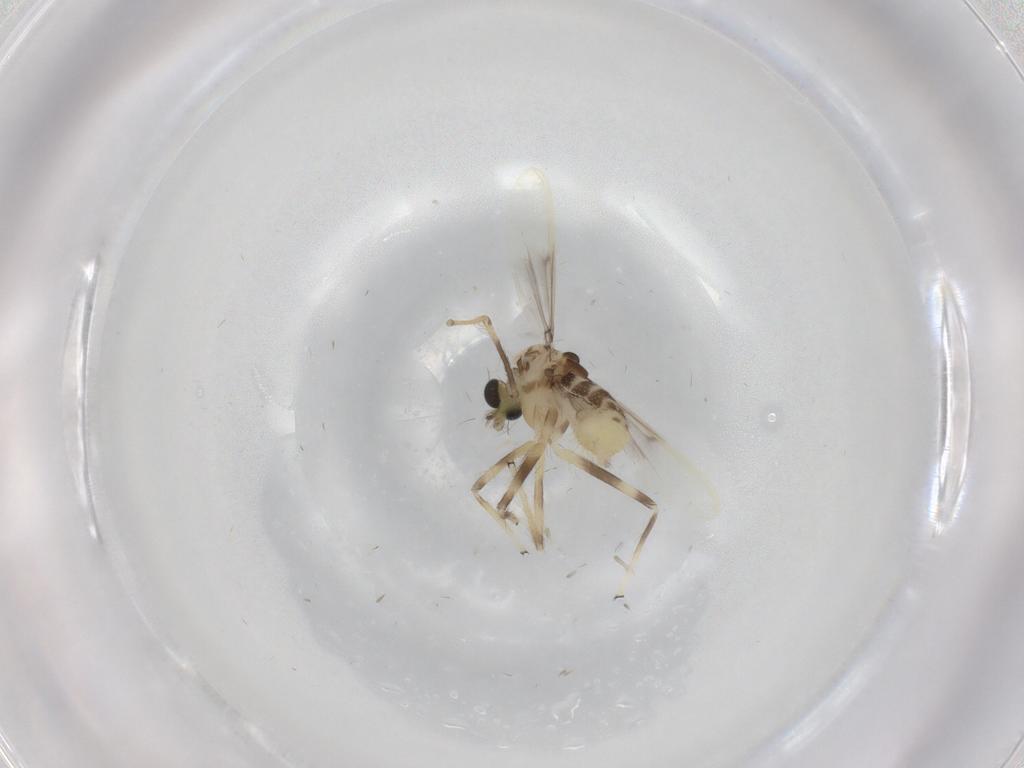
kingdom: Animalia
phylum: Arthropoda
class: Insecta
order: Diptera
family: Chironomidae
